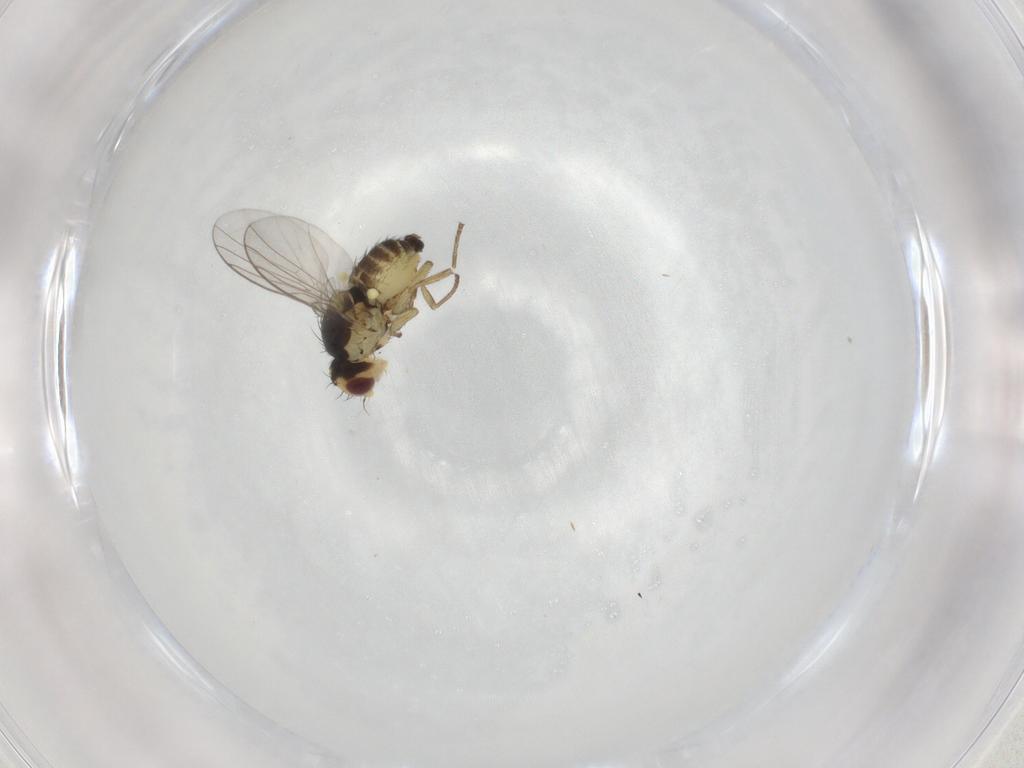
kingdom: Animalia
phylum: Arthropoda
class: Insecta
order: Diptera
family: Agromyzidae
